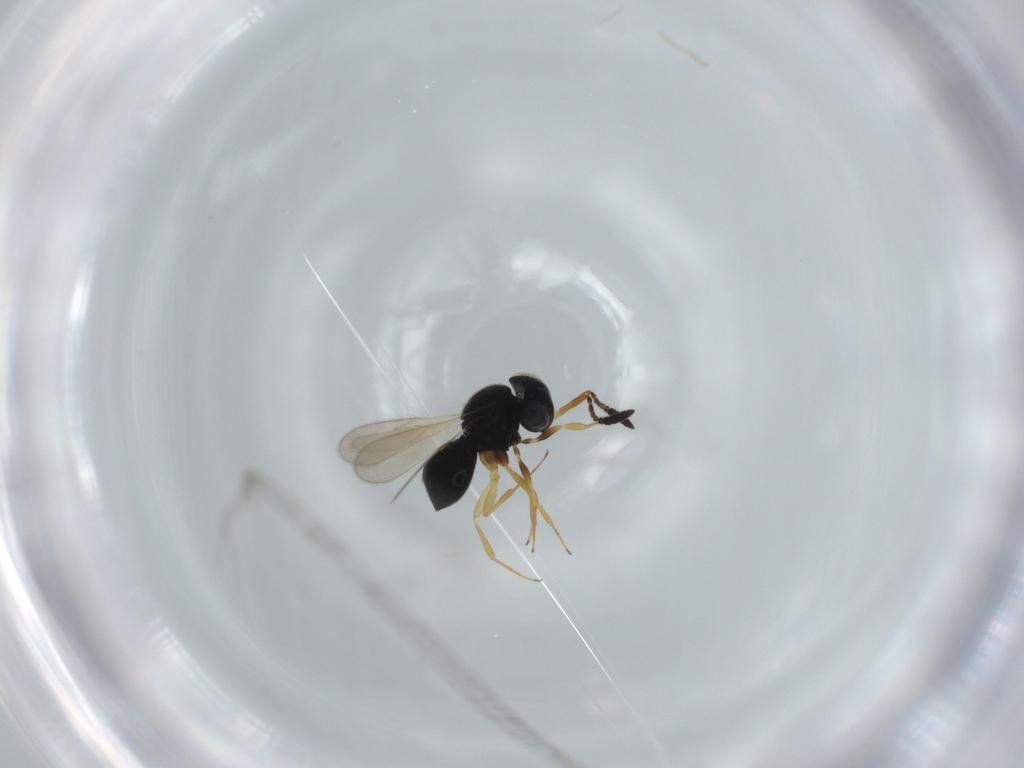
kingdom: Animalia
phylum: Arthropoda
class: Insecta
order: Hymenoptera
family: Scelionidae
